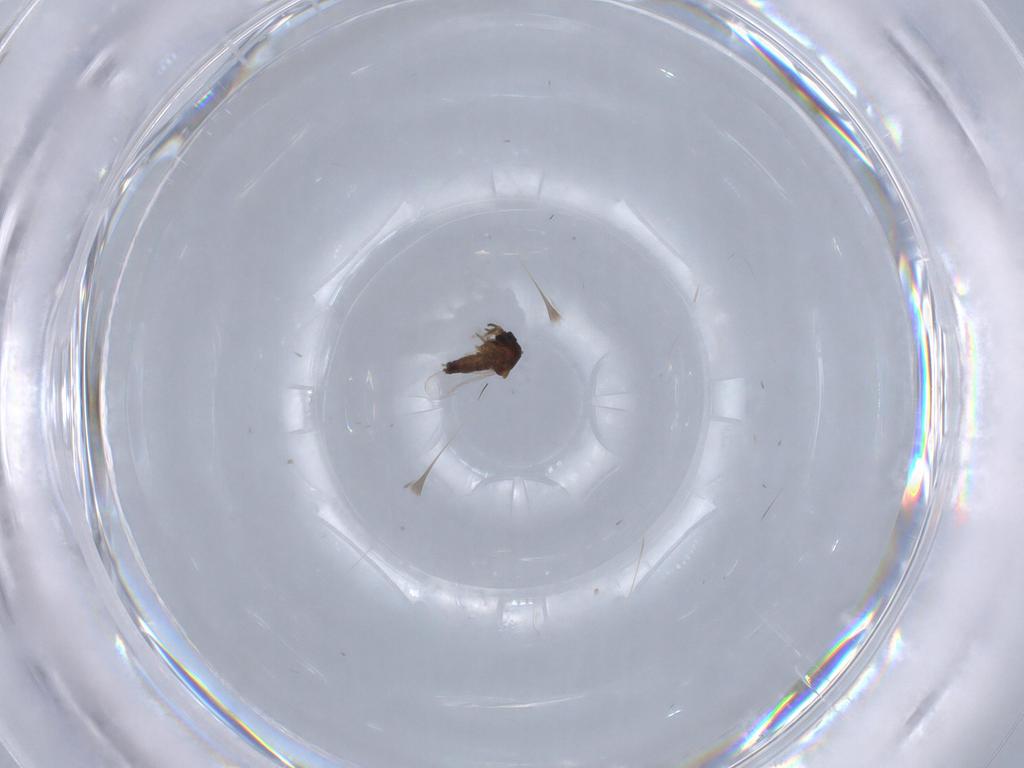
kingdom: Animalia
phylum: Arthropoda
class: Insecta
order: Diptera
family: Ceratopogonidae
